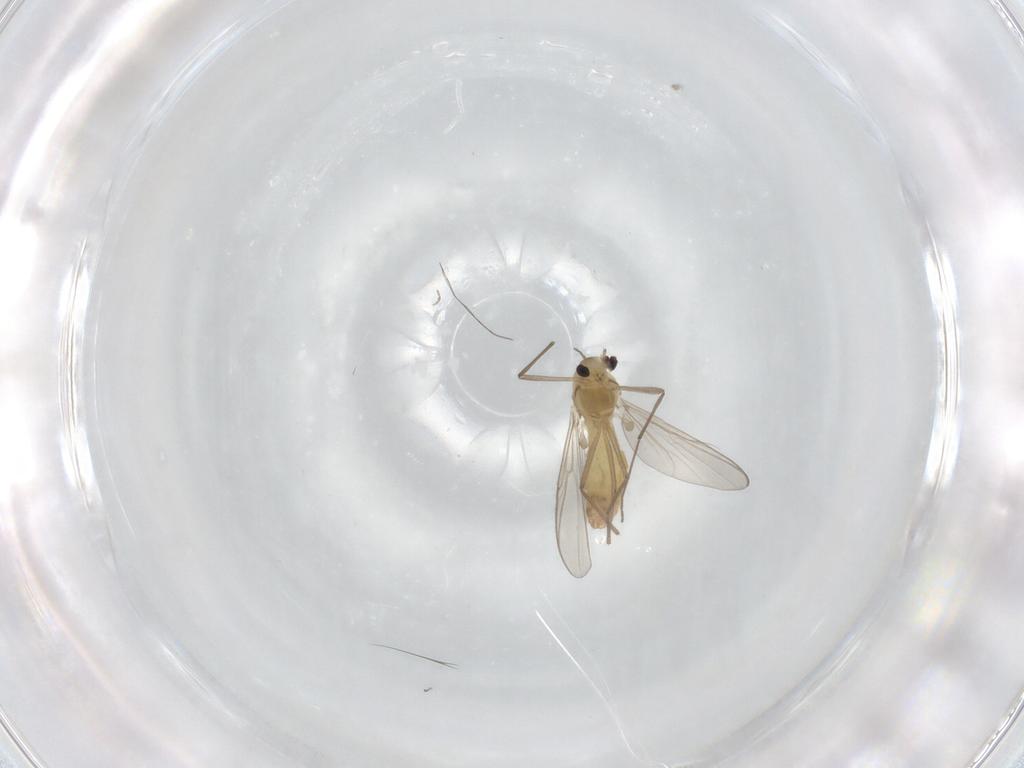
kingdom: Animalia
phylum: Arthropoda
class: Insecta
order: Diptera
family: Chironomidae
